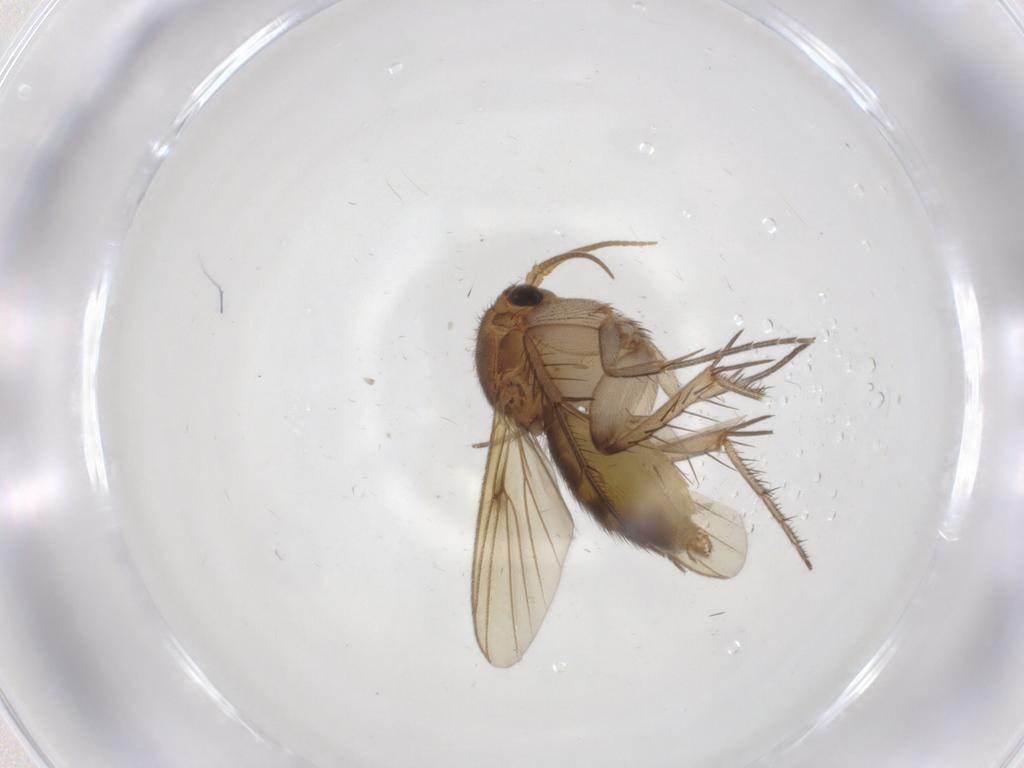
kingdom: Animalia
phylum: Arthropoda
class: Insecta
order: Diptera
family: Sciaridae
